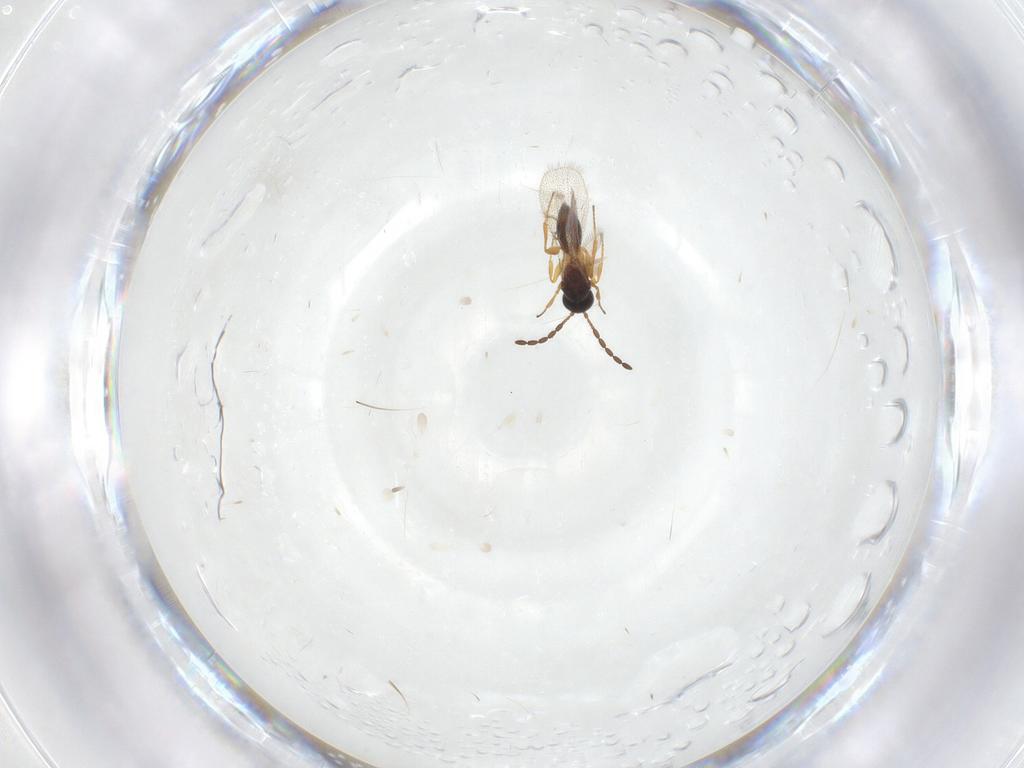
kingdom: Animalia
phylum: Arthropoda
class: Insecta
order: Hymenoptera
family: Figitidae
